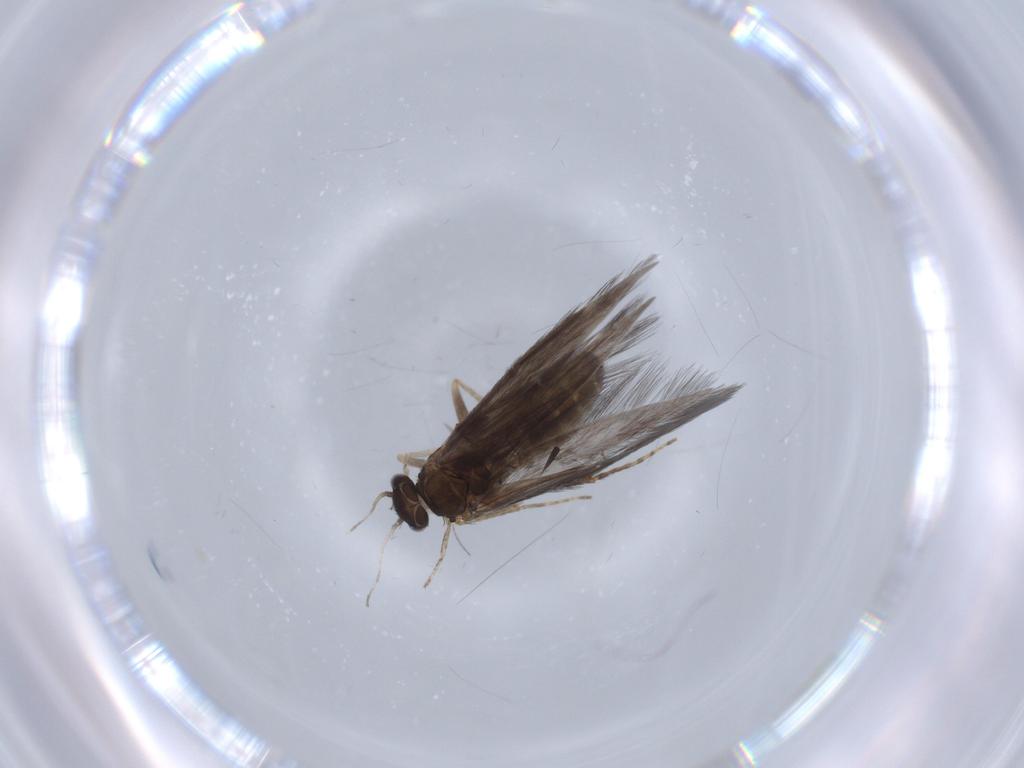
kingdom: Animalia
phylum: Arthropoda
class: Insecta
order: Trichoptera
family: Hydroptilidae
